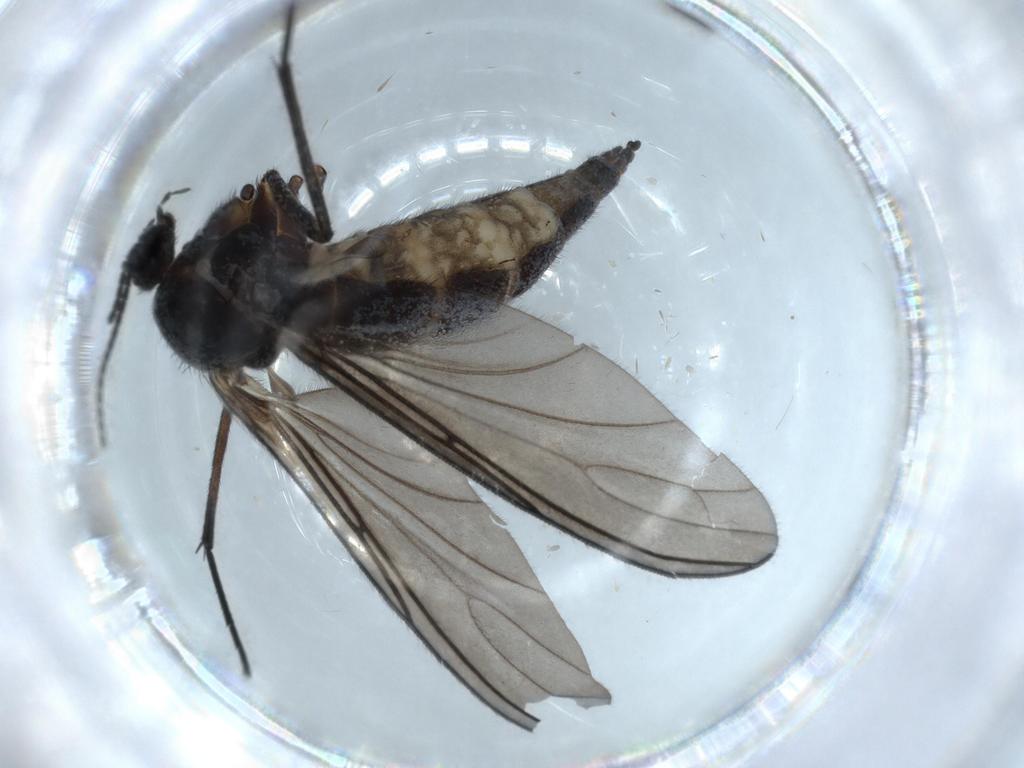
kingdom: Animalia
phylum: Arthropoda
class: Insecta
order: Diptera
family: Sciaridae
